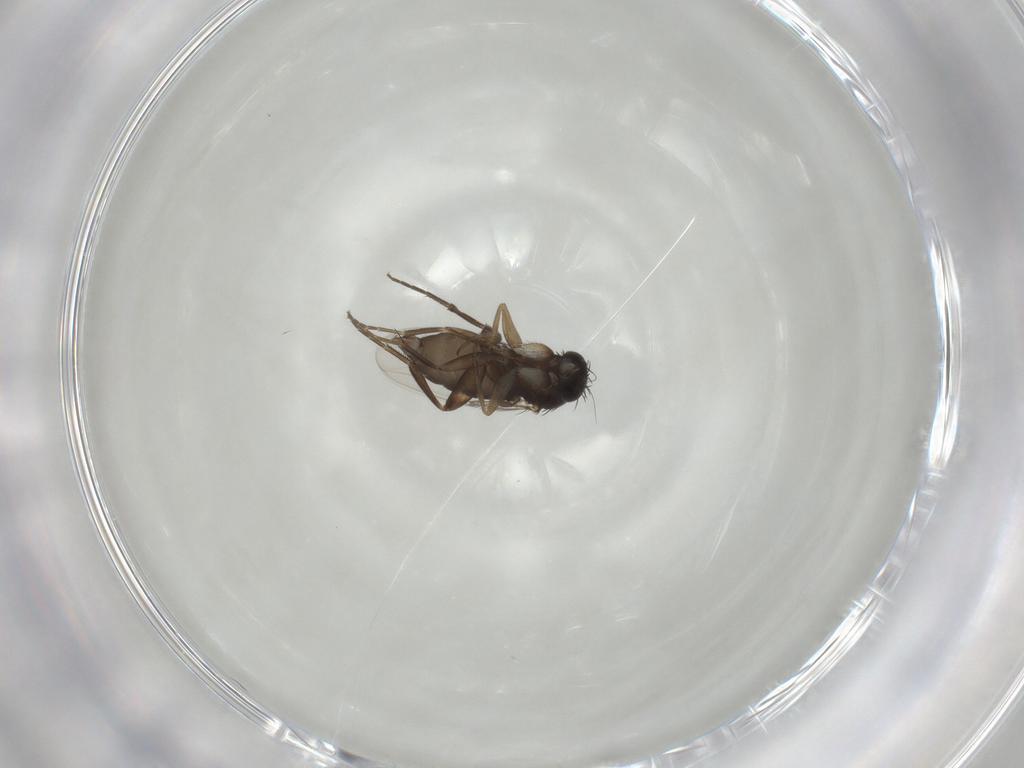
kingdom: Animalia
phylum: Arthropoda
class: Insecta
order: Diptera
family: Phoridae
